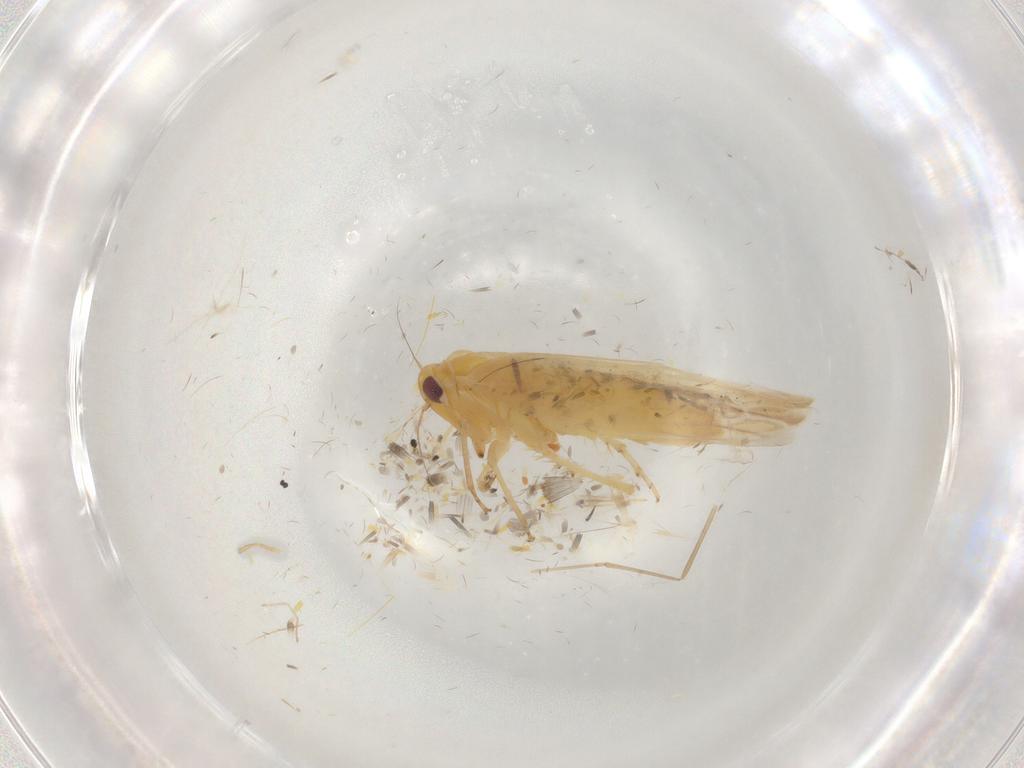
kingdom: Animalia
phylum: Arthropoda
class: Insecta
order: Hemiptera
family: Cicadellidae
